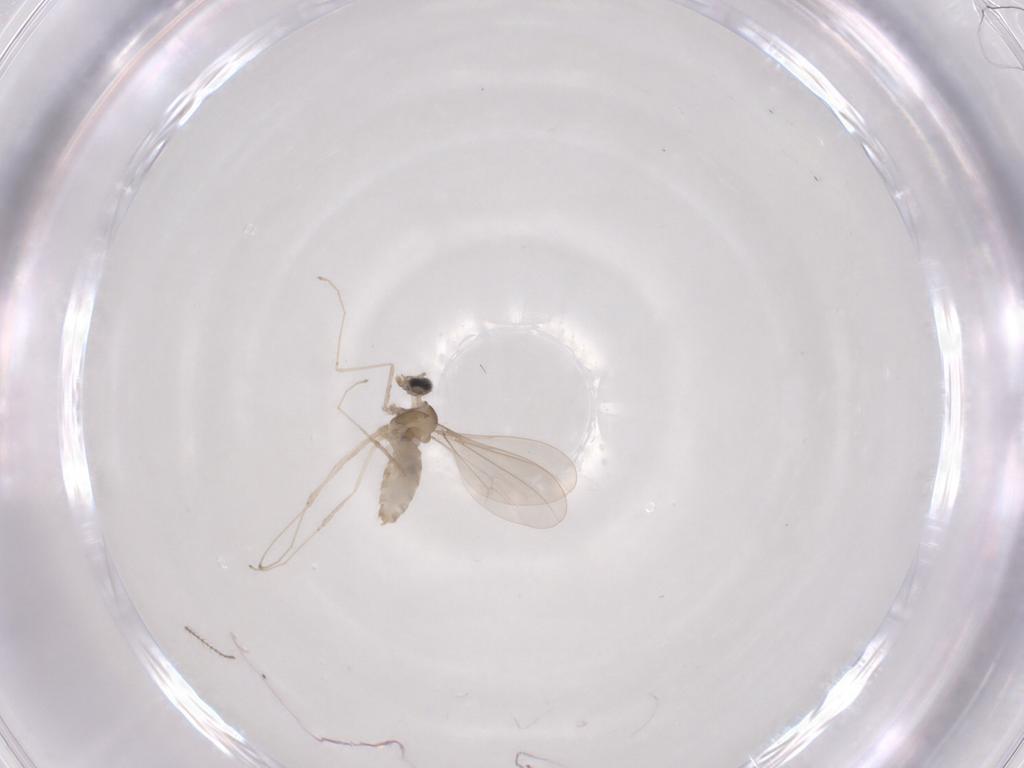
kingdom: Animalia
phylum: Arthropoda
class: Insecta
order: Diptera
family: Cecidomyiidae
